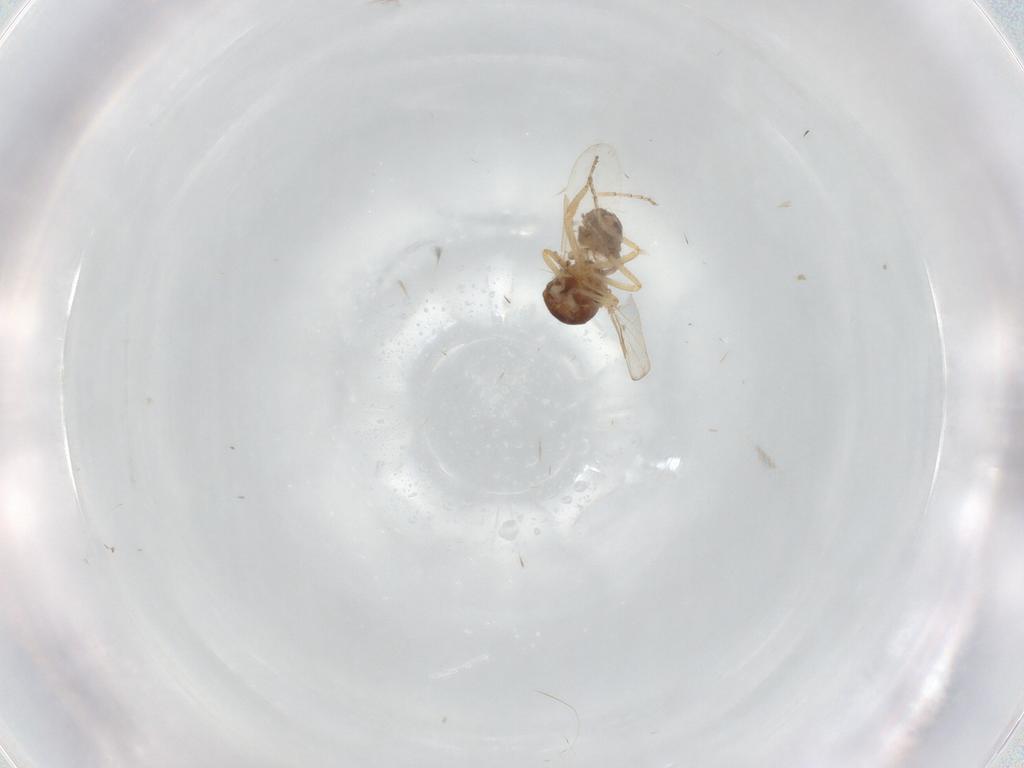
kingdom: Animalia
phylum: Arthropoda
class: Insecta
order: Diptera
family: Ceratopogonidae
